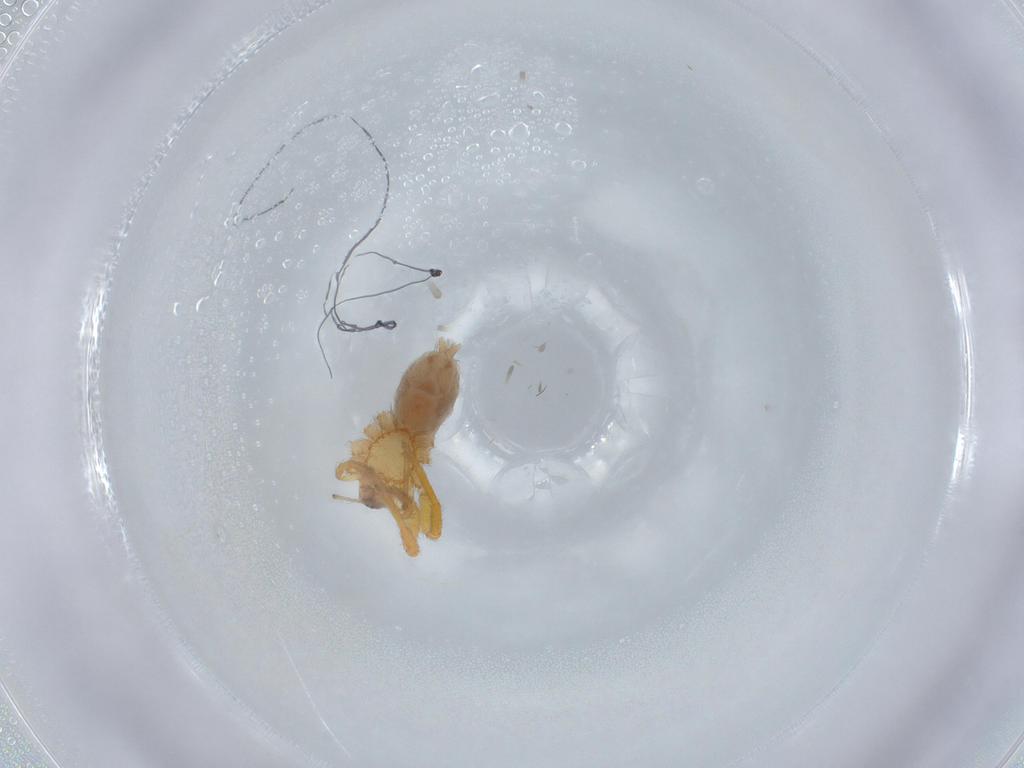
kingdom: Animalia
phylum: Arthropoda
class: Arachnida
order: Araneae
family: Oonopidae
